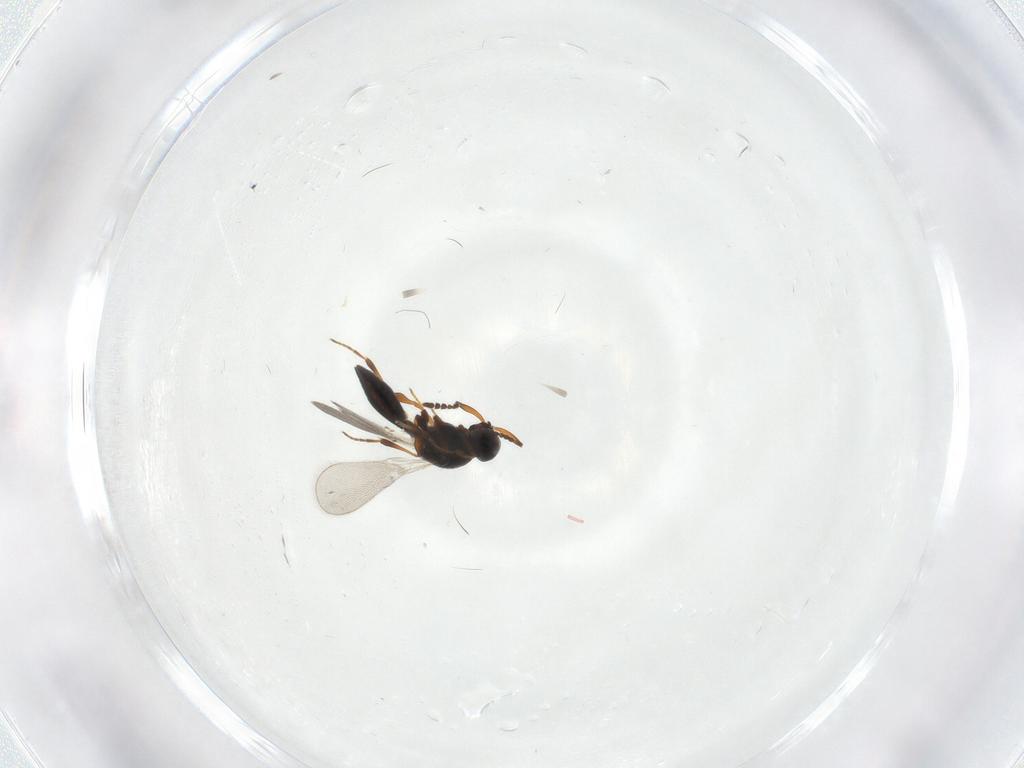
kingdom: Animalia
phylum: Arthropoda
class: Insecta
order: Hymenoptera
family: Platygastridae
